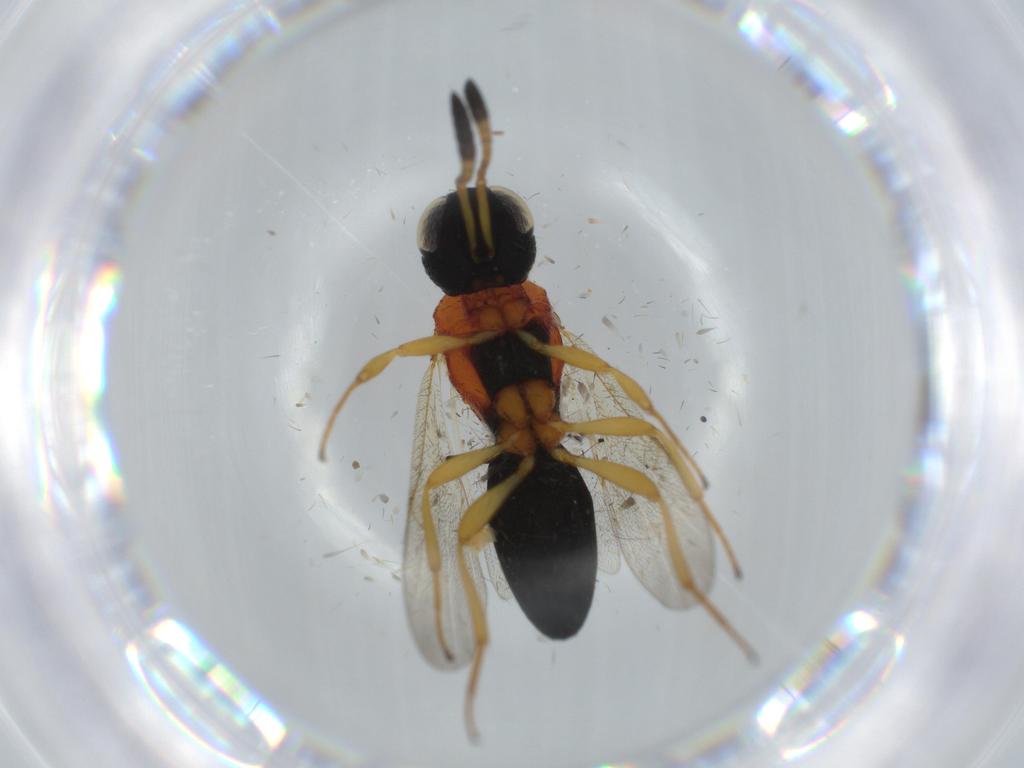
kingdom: Animalia
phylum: Arthropoda
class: Insecta
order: Hymenoptera
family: Scelionidae
